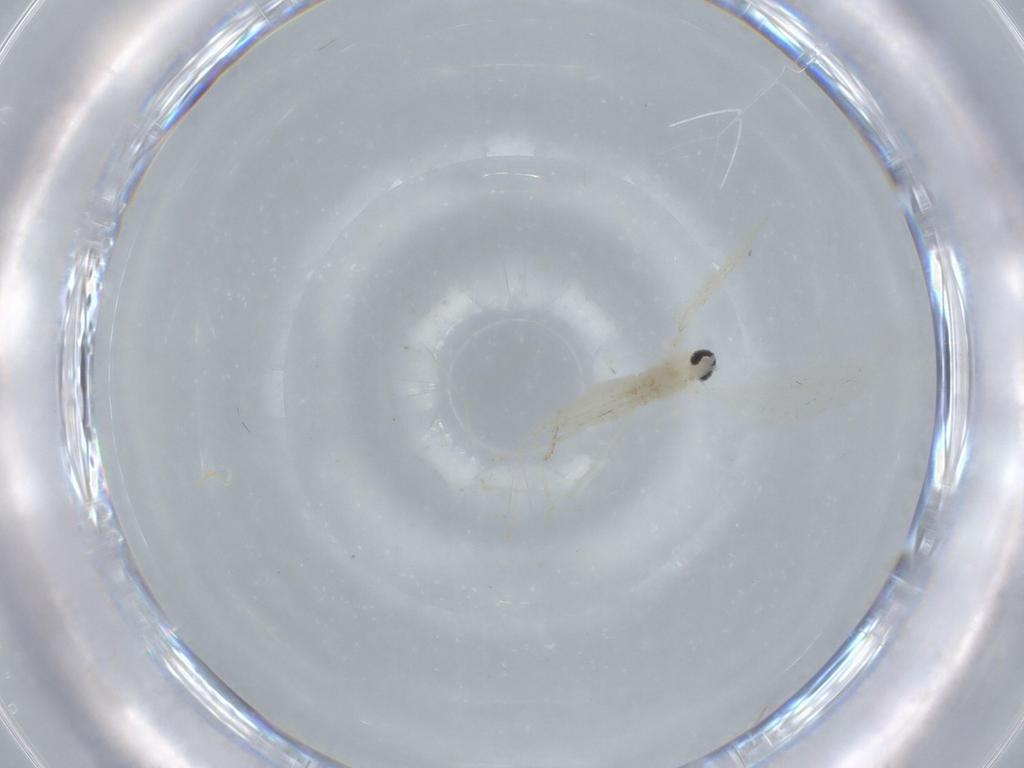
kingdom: Animalia
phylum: Arthropoda
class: Insecta
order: Diptera
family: Cecidomyiidae
